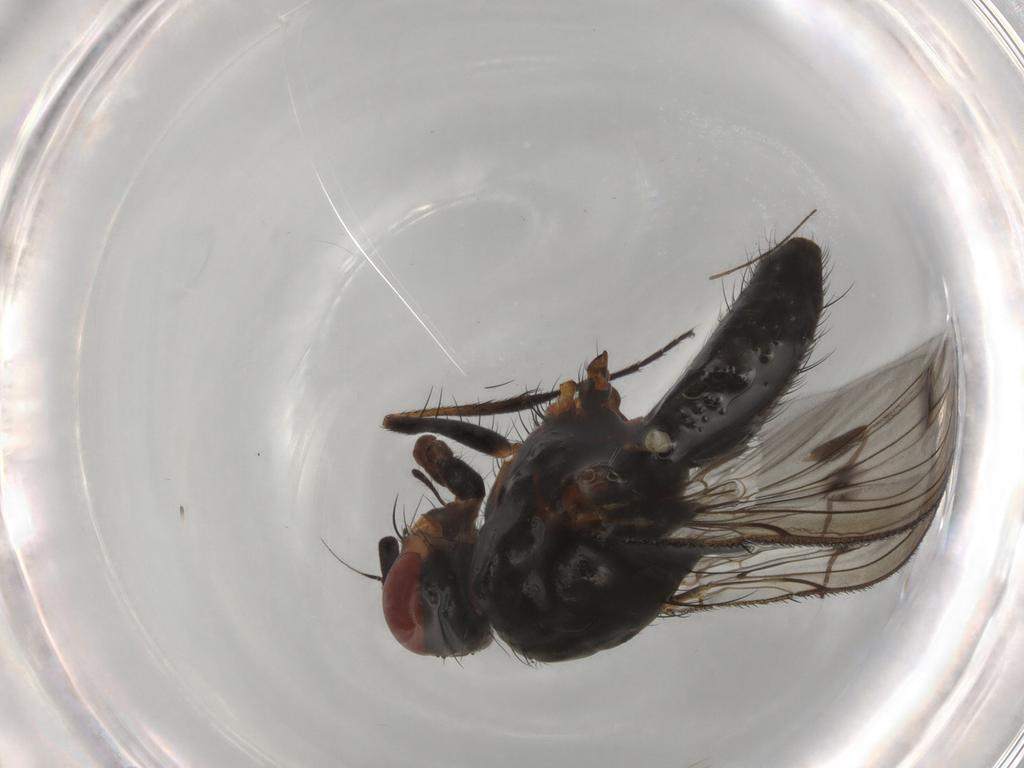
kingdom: Animalia
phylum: Arthropoda
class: Insecta
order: Diptera
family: Anthomyiidae
